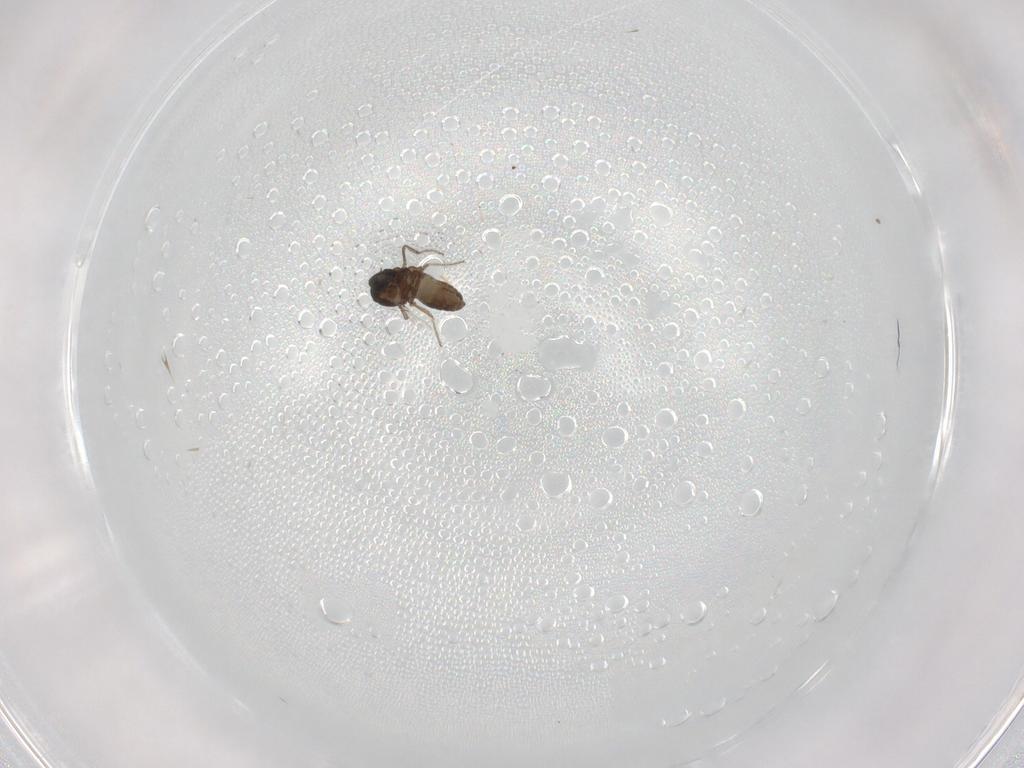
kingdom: Animalia
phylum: Arthropoda
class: Insecta
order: Diptera
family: Ceratopogonidae
